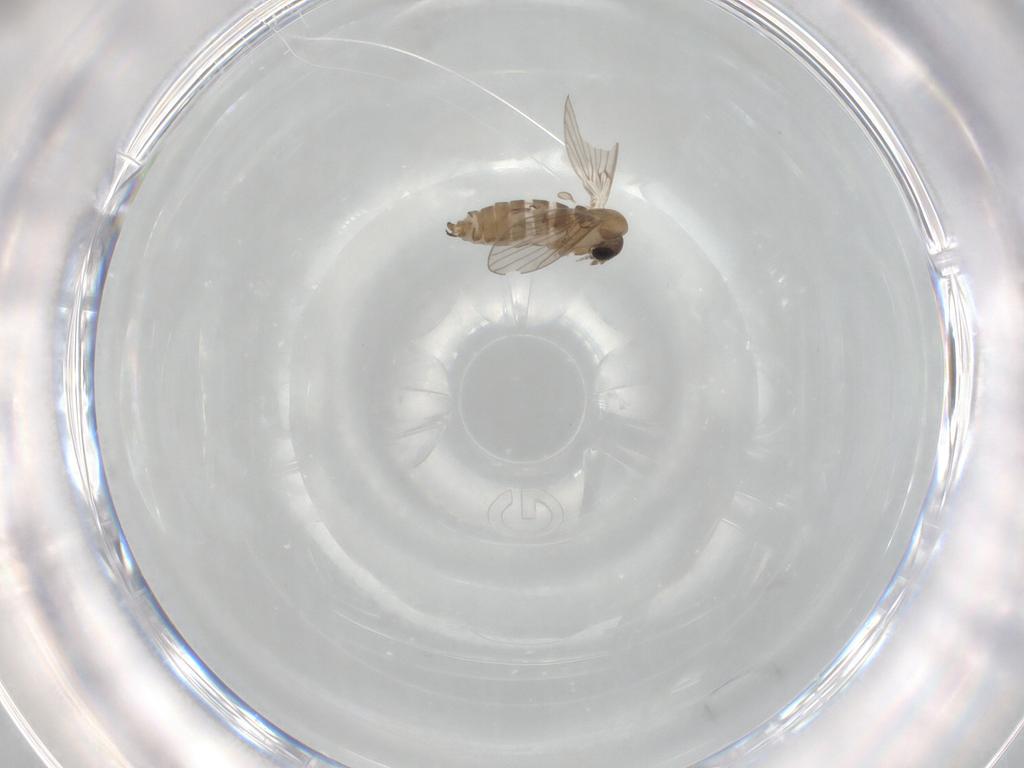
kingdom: Animalia
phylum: Arthropoda
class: Insecta
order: Diptera
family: Psychodidae
